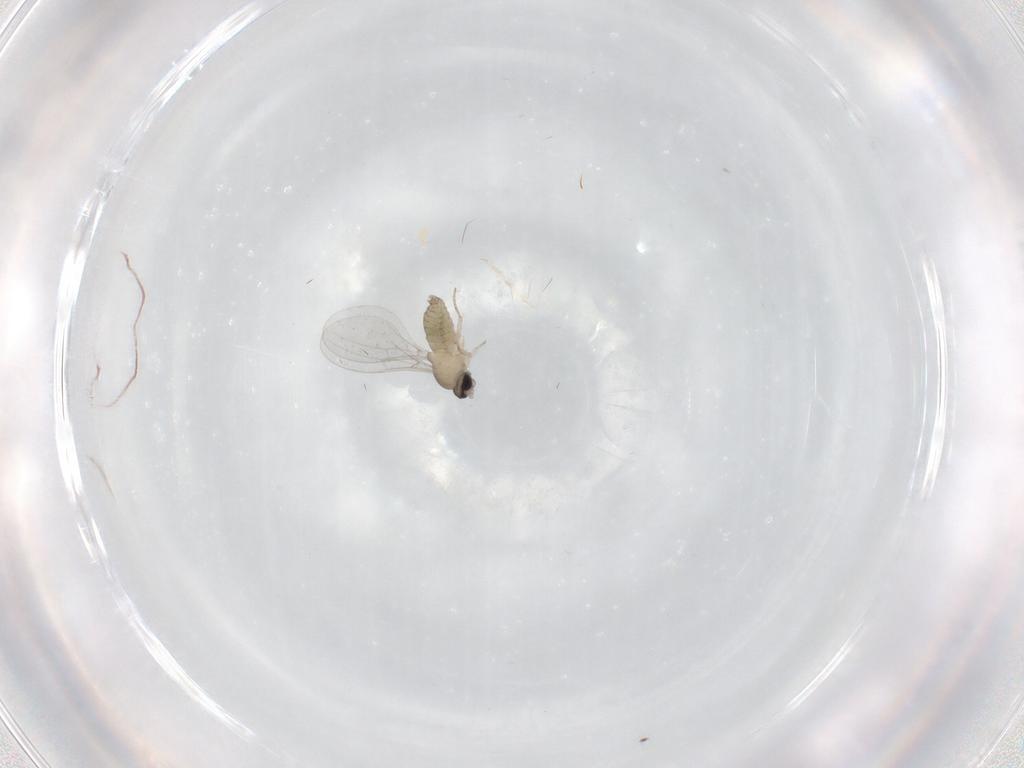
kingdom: Animalia
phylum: Arthropoda
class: Insecta
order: Diptera
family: Cecidomyiidae
